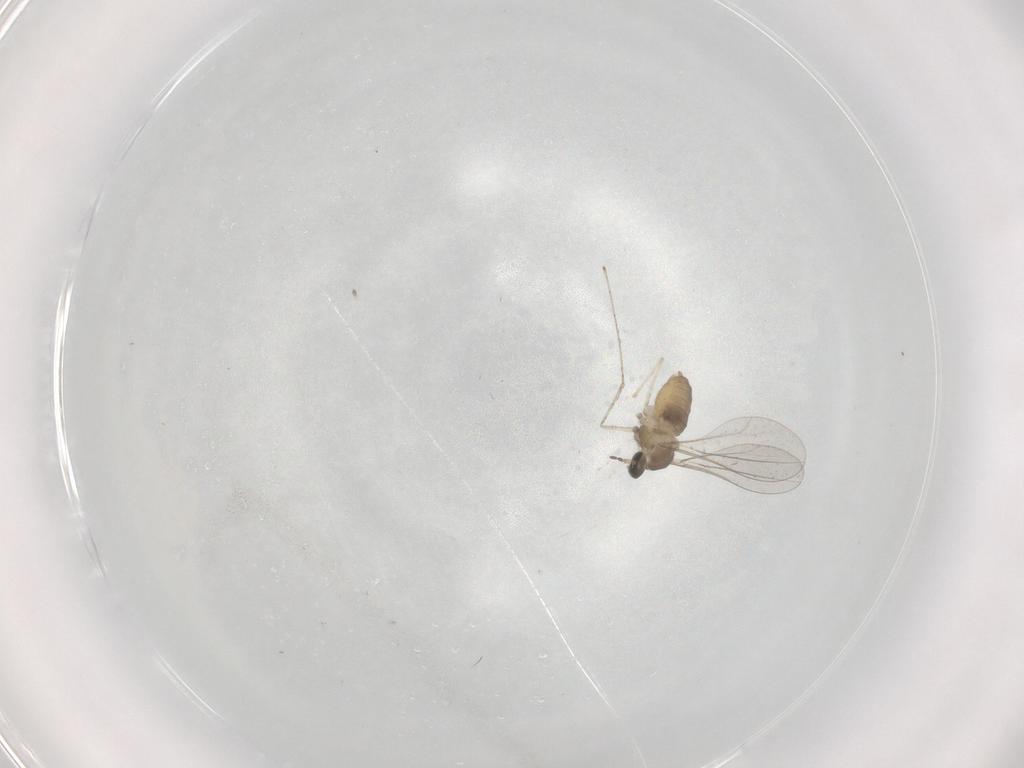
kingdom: Animalia
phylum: Arthropoda
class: Insecta
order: Diptera
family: Cecidomyiidae
